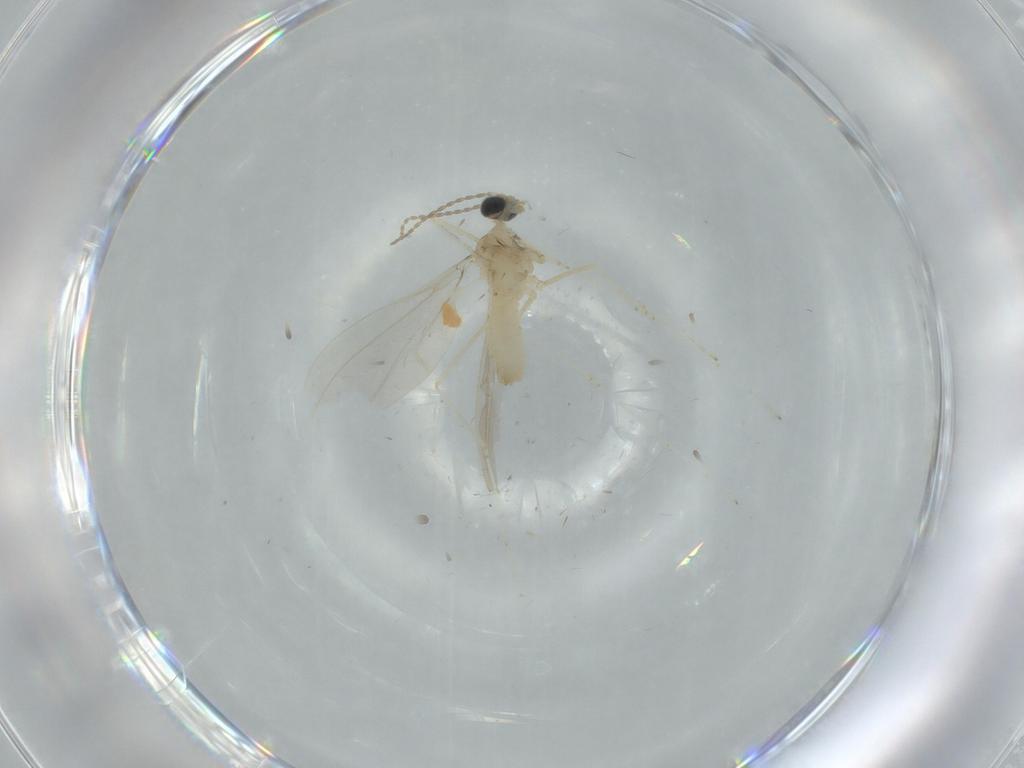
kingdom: Animalia
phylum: Arthropoda
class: Insecta
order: Diptera
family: Cecidomyiidae
